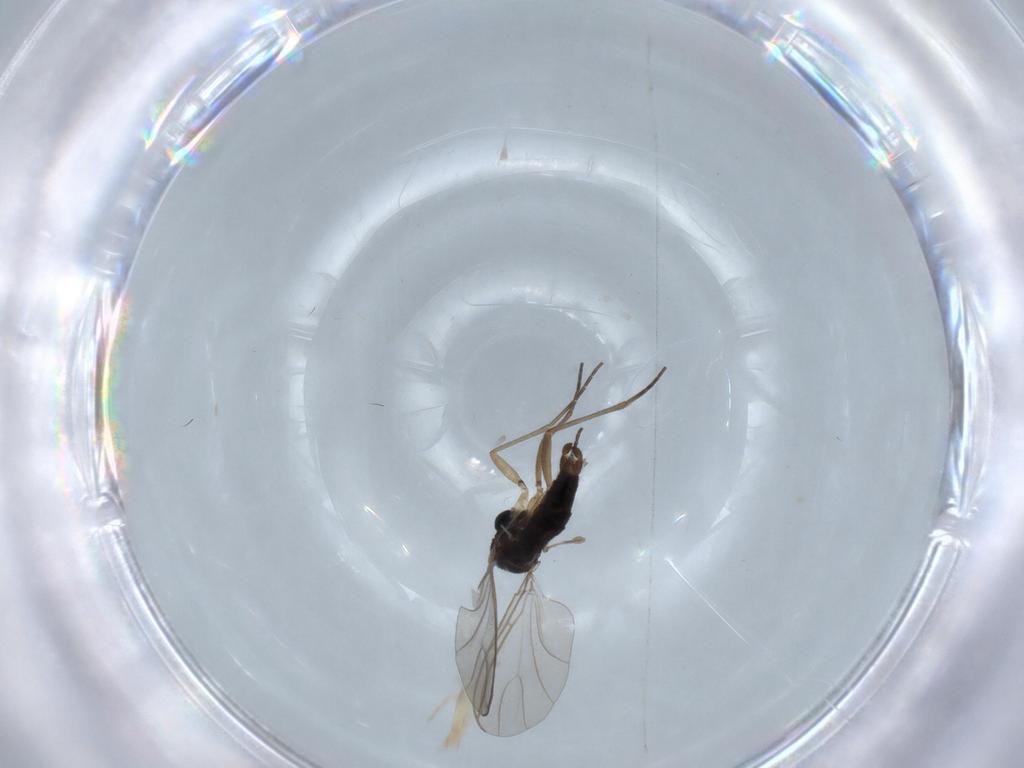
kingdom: Animalia
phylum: Arthropoda
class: Insecta
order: Diptera
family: Sciaridae
